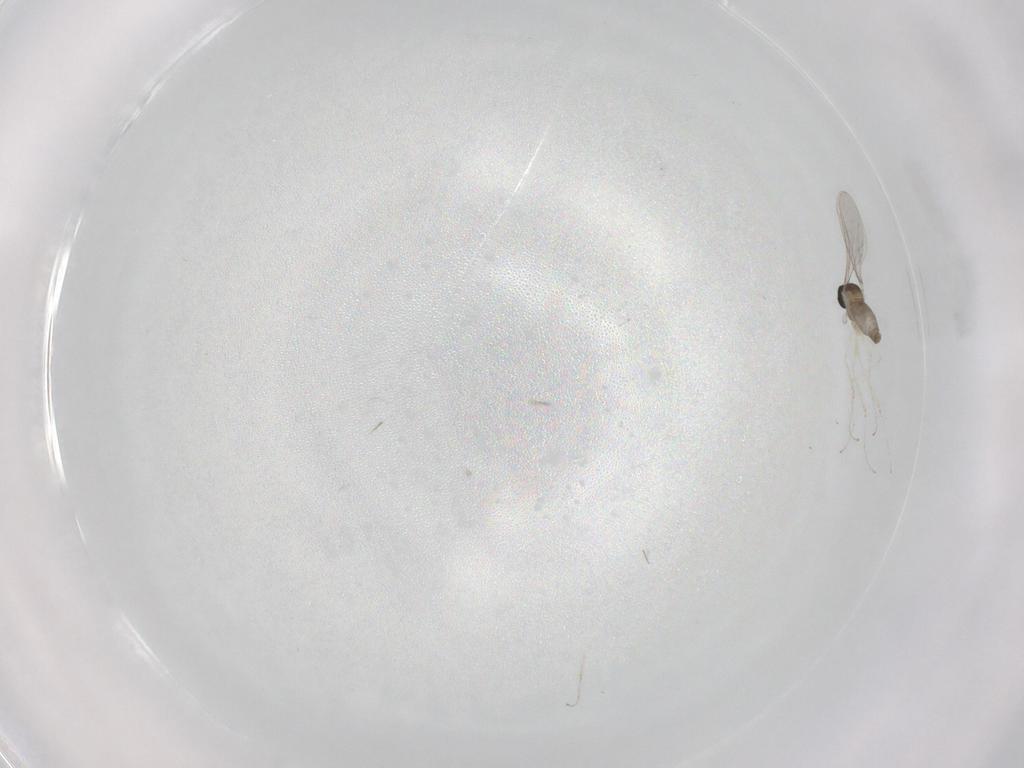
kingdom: Animalia
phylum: Arthropoda
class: Insecta
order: Diptera
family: Cecidomyiidae
